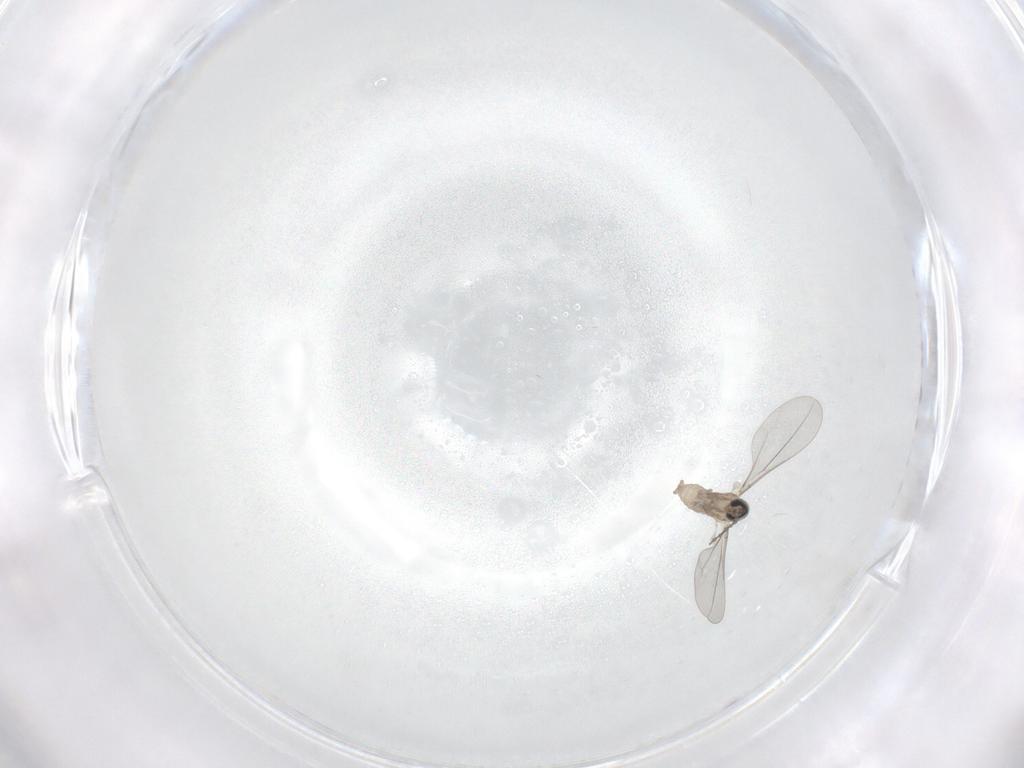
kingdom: Animalia
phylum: Arthropoda
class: Insecta
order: Diptera
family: Cecidomyiidae
